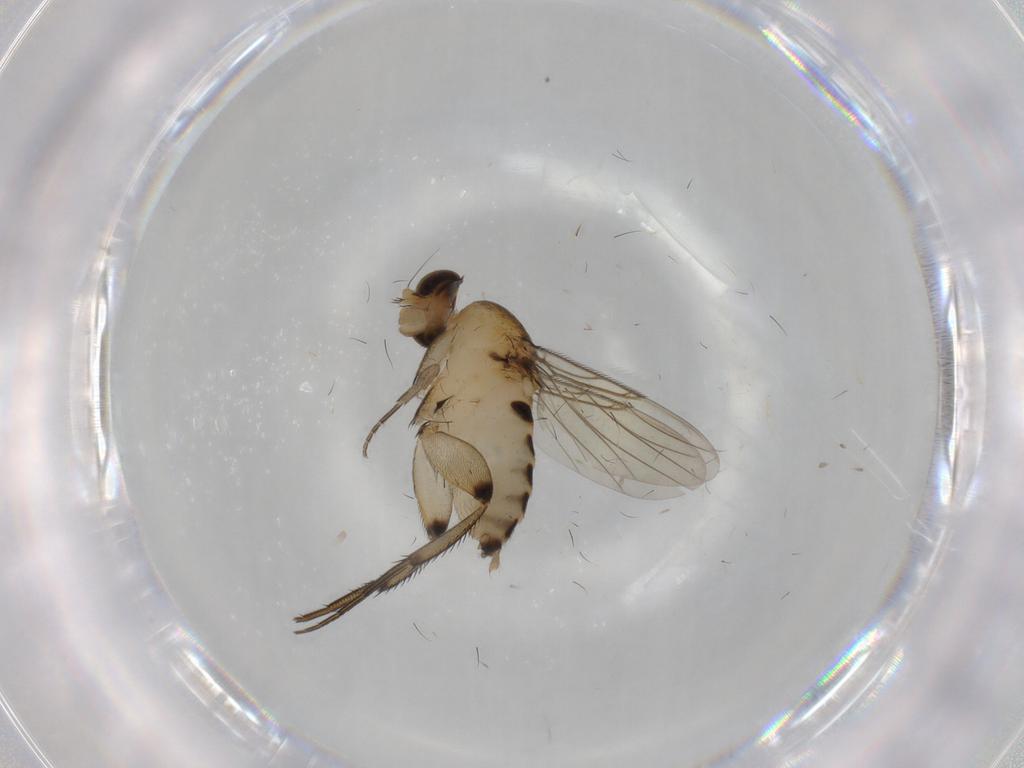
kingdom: Animalia
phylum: Arthropoda
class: Insecta
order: Diptera
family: Phoridae
